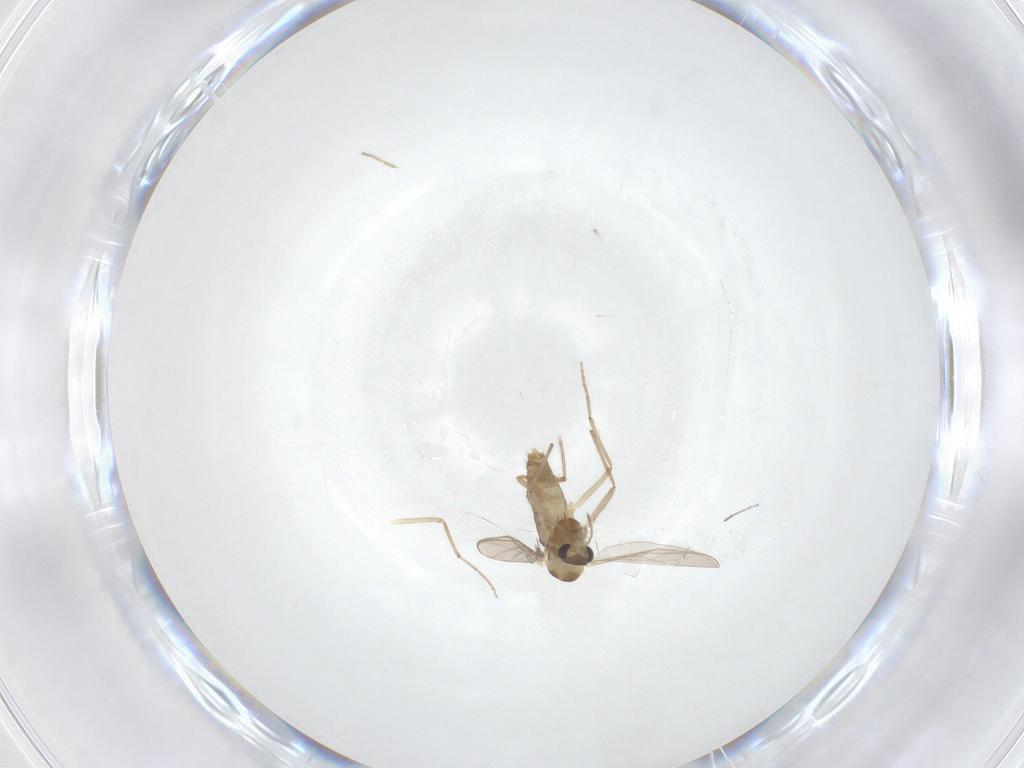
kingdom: Animalia
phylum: Arthropoda
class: Insecta
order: Diptera
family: Chironomidae
